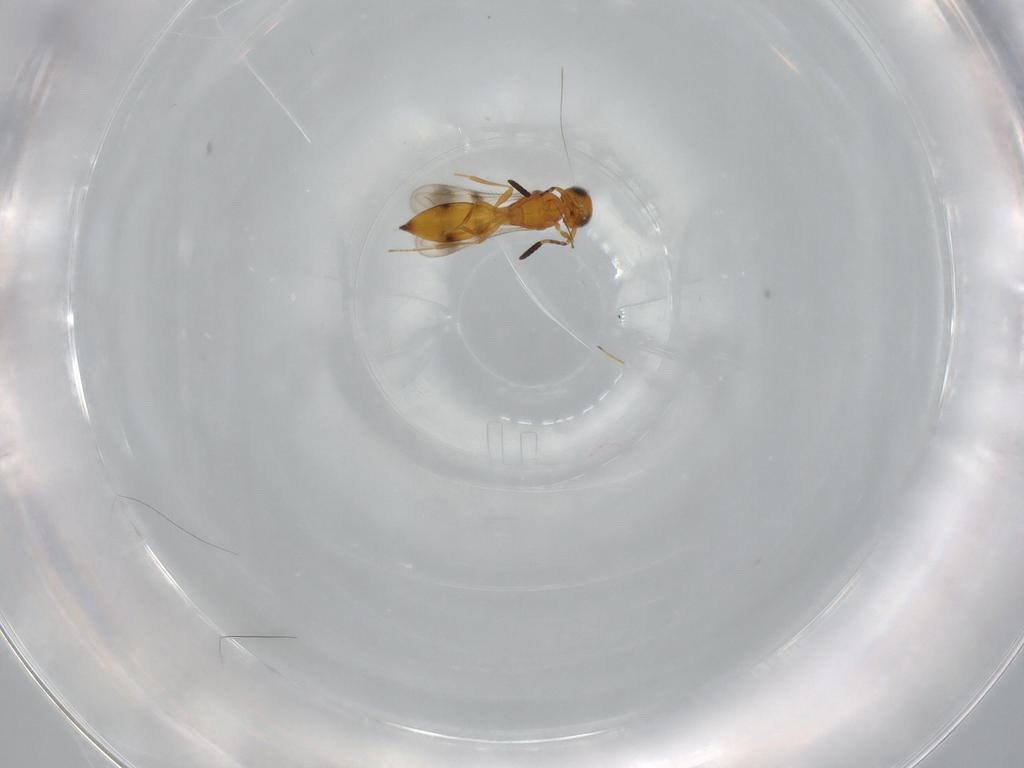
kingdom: Animalia
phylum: Arthropoda
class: Insecta
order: Hymenoptera
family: Scelionidae
